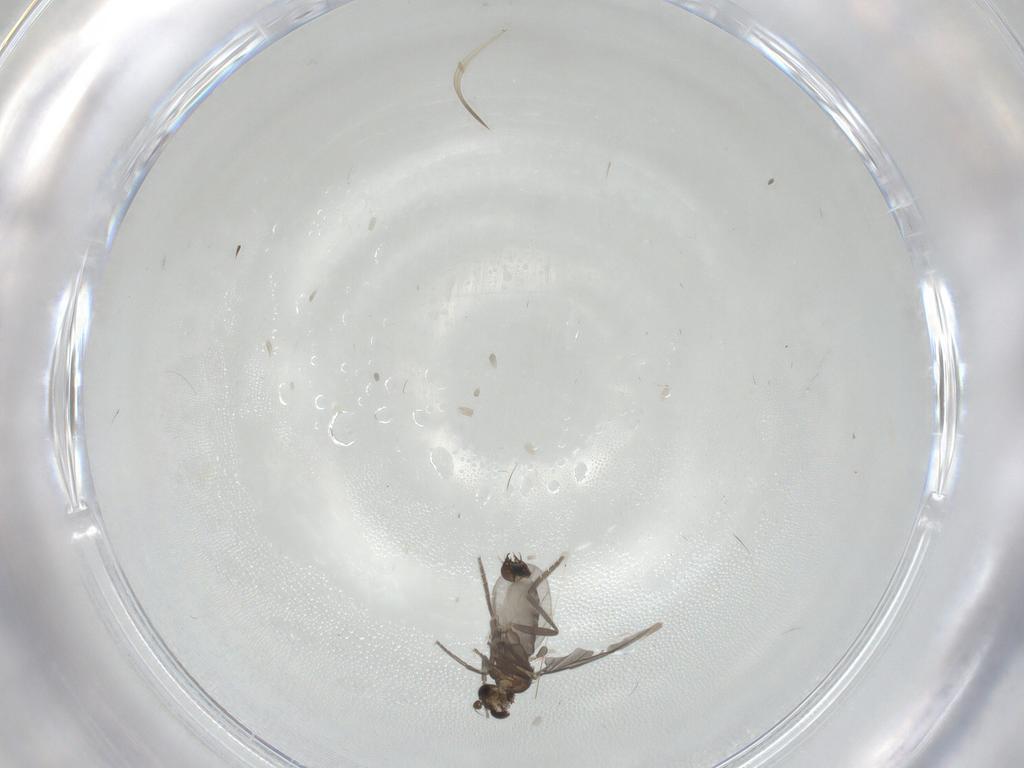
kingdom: Animalia
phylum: Arthropoda
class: Insecta
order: Diptera
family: Phoridae
